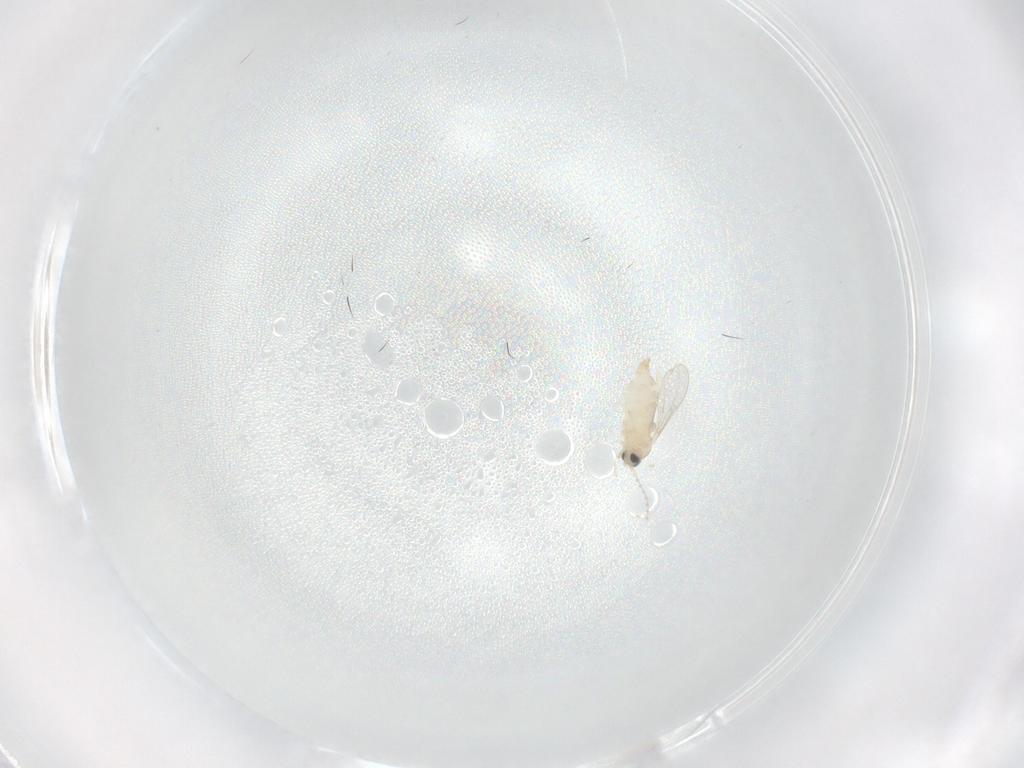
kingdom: Animalia
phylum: Arthropoda
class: Insecta
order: Diptera
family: Cecidomyiidae
